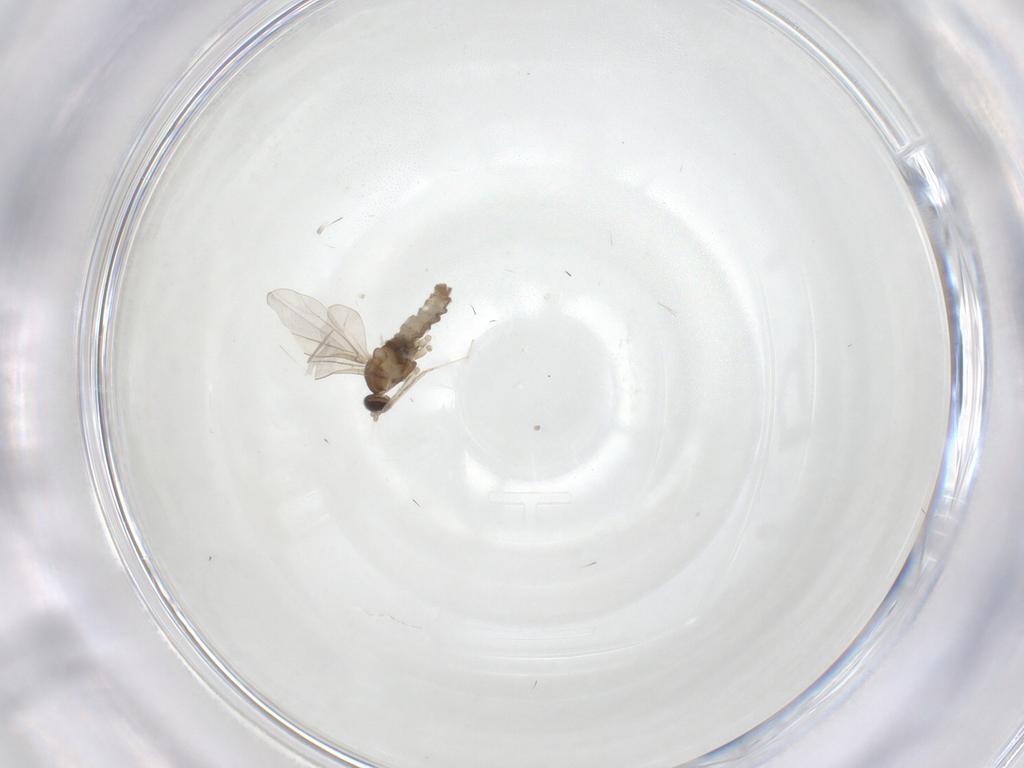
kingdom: Animalia
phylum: Arthropoda
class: Insecta
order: Diptera
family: Cecidomyiidae
